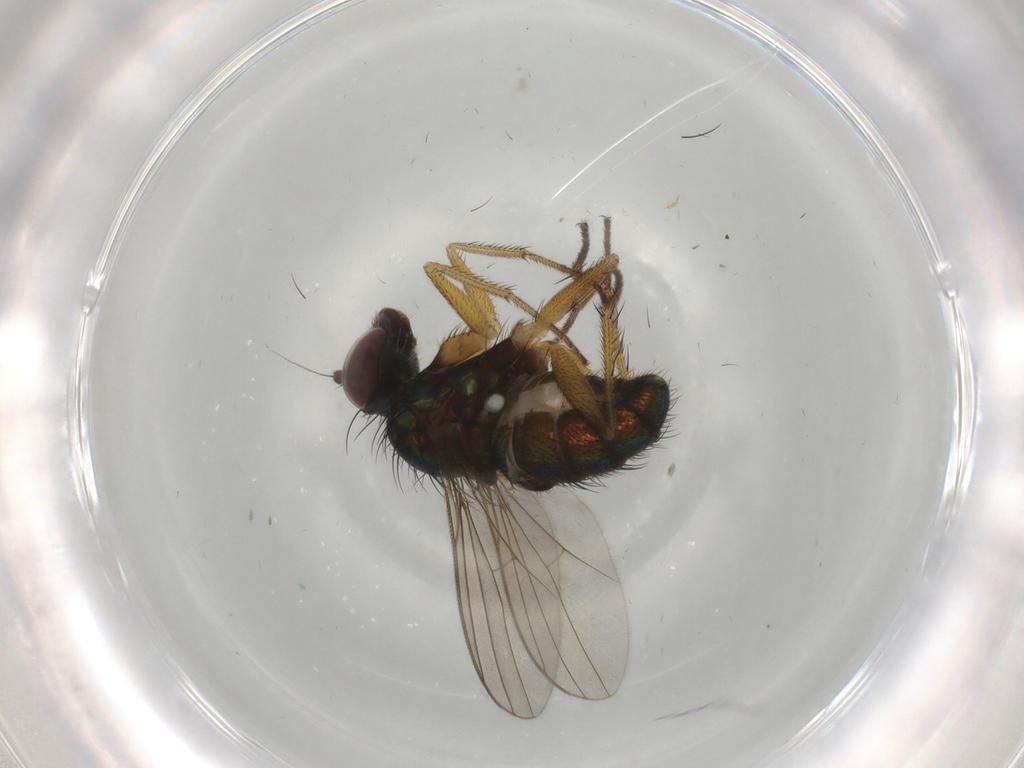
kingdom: Animalia
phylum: Arthropoda
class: Insecta
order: Diptera
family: Dolichopodidae
